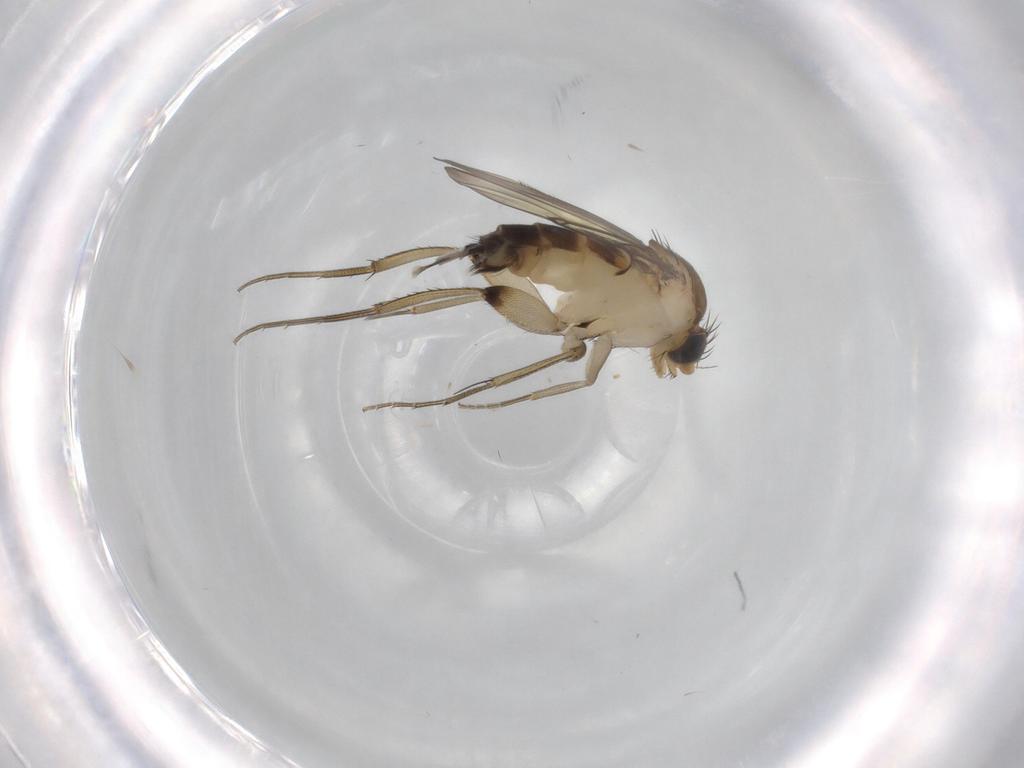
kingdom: Animalia
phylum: Arthropoda
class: Insecta
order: Diptera
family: Phoridae
